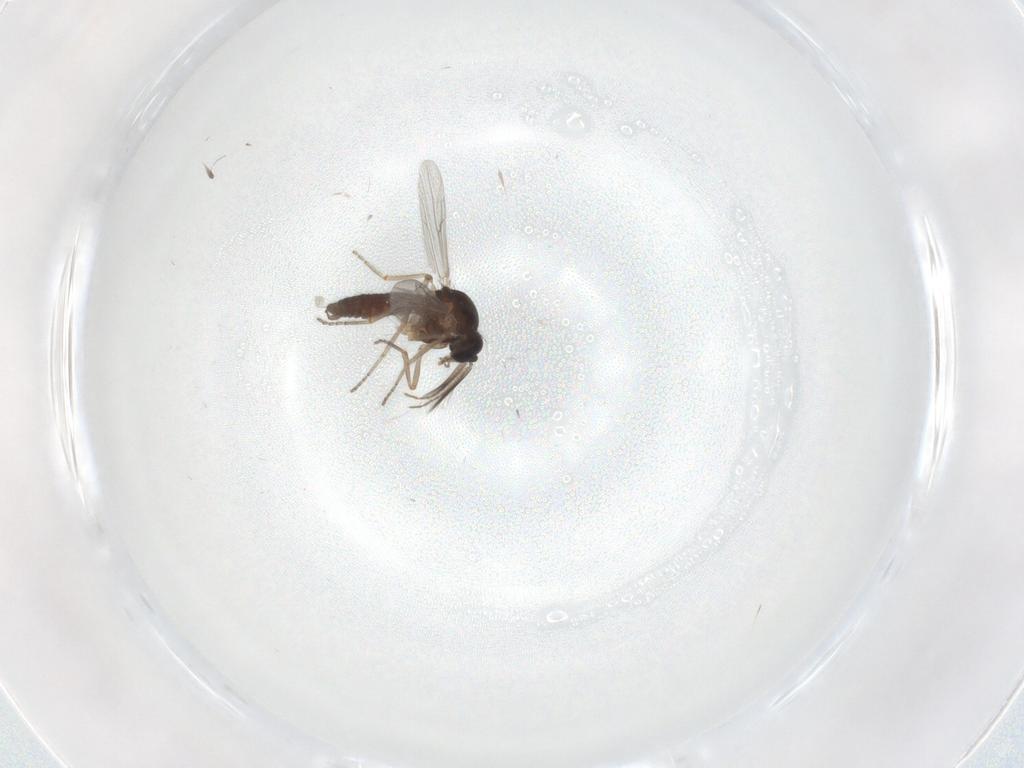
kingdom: Animalia
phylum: Arthropoda
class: Insecta
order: Diptera
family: Ceratopogonidae
